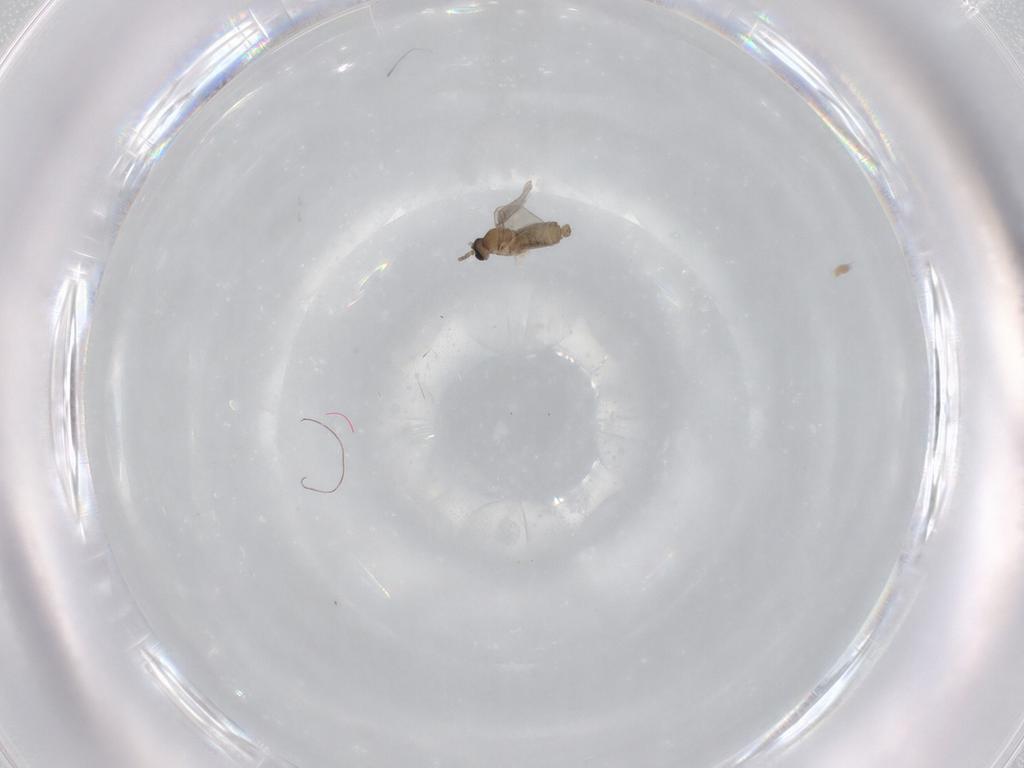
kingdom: Animalia
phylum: Arthropoda
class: Insecta
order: Diptera
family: Cecidomyiidae
